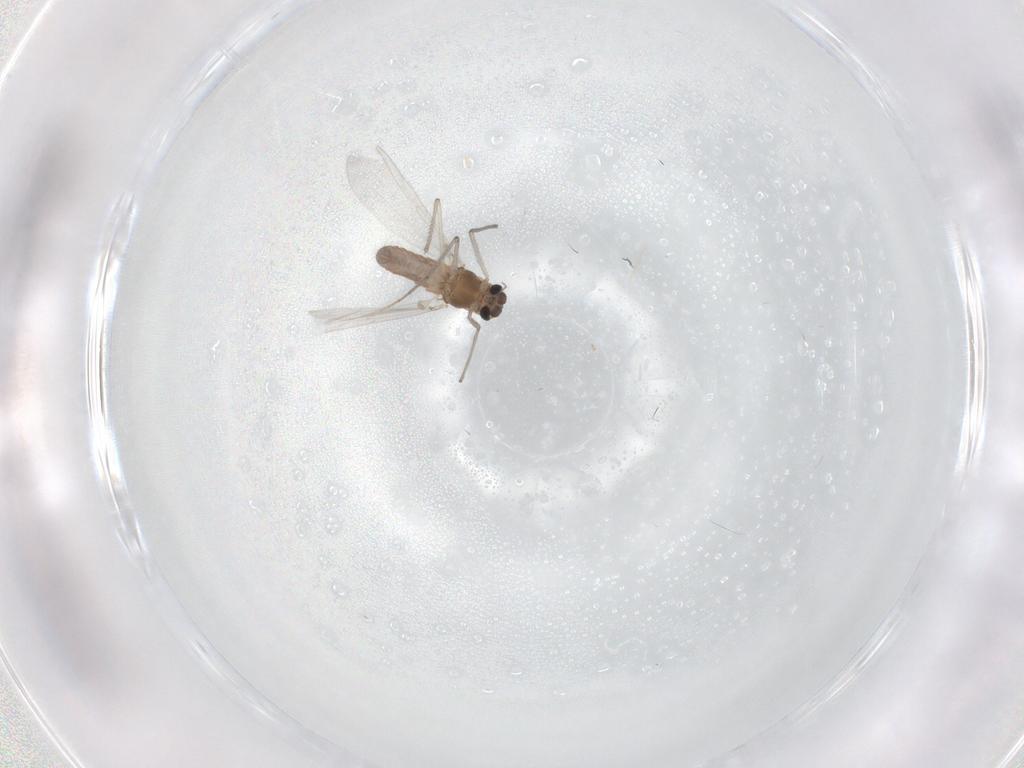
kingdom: Animalia
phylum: Arthropoda
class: Insecta
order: Diptera
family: Chironomidae
